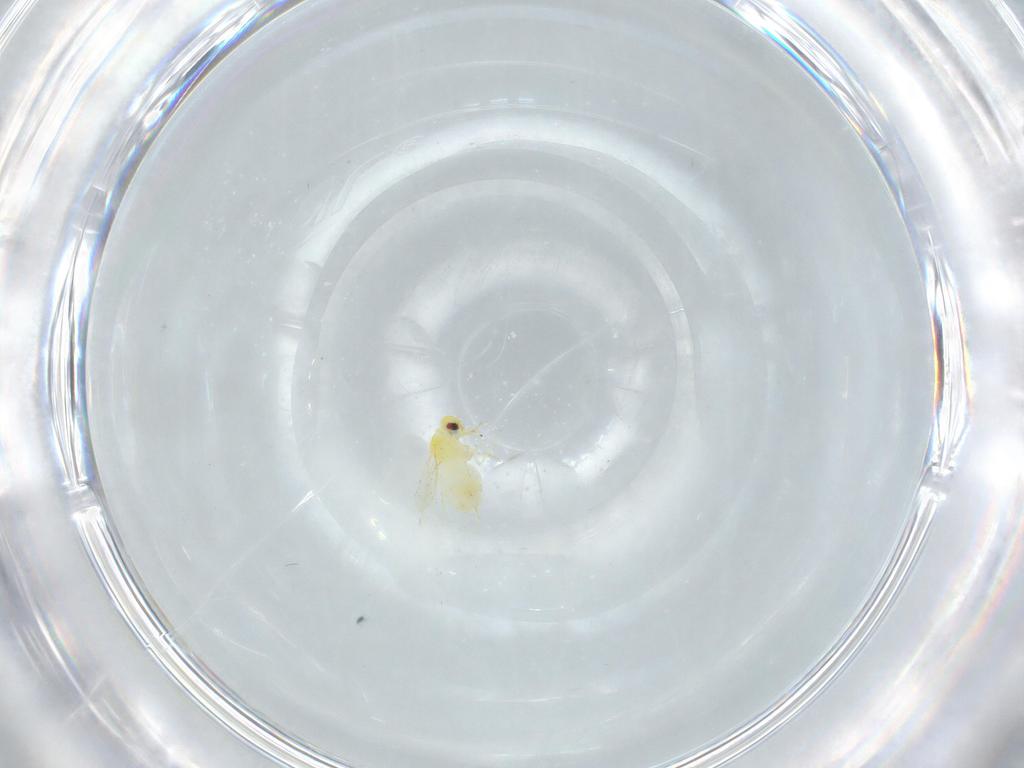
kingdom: Animalia
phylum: Arthropoda
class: Insecta
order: Hemiptera
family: Aleyrodidae
